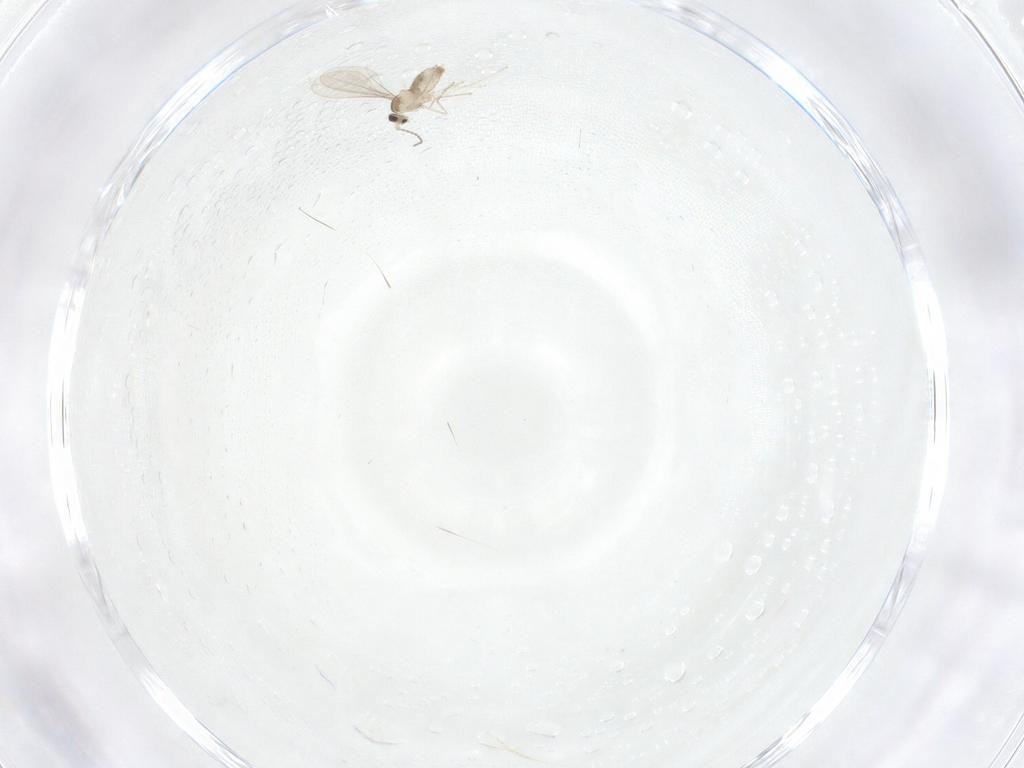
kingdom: Animalia
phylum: Arthropoda
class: Insecta
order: Diptera
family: Cecidomyiidae
